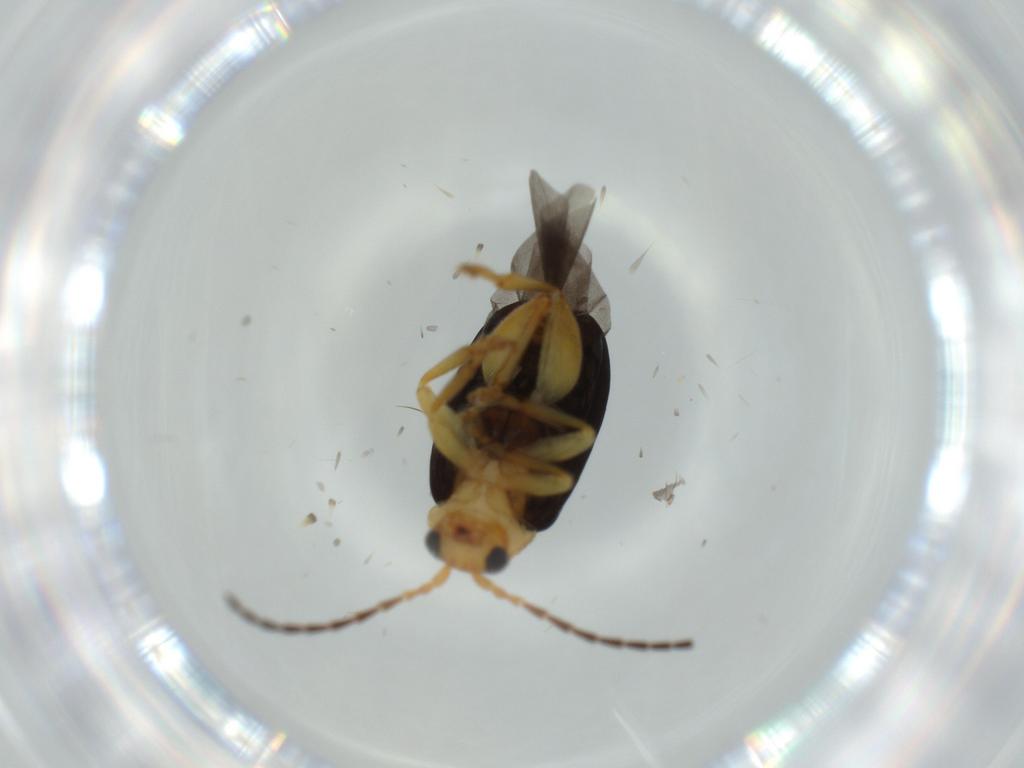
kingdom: Animalia
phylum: Arthropoda
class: Insecta
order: Coleoptera
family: Chrysomelidae
